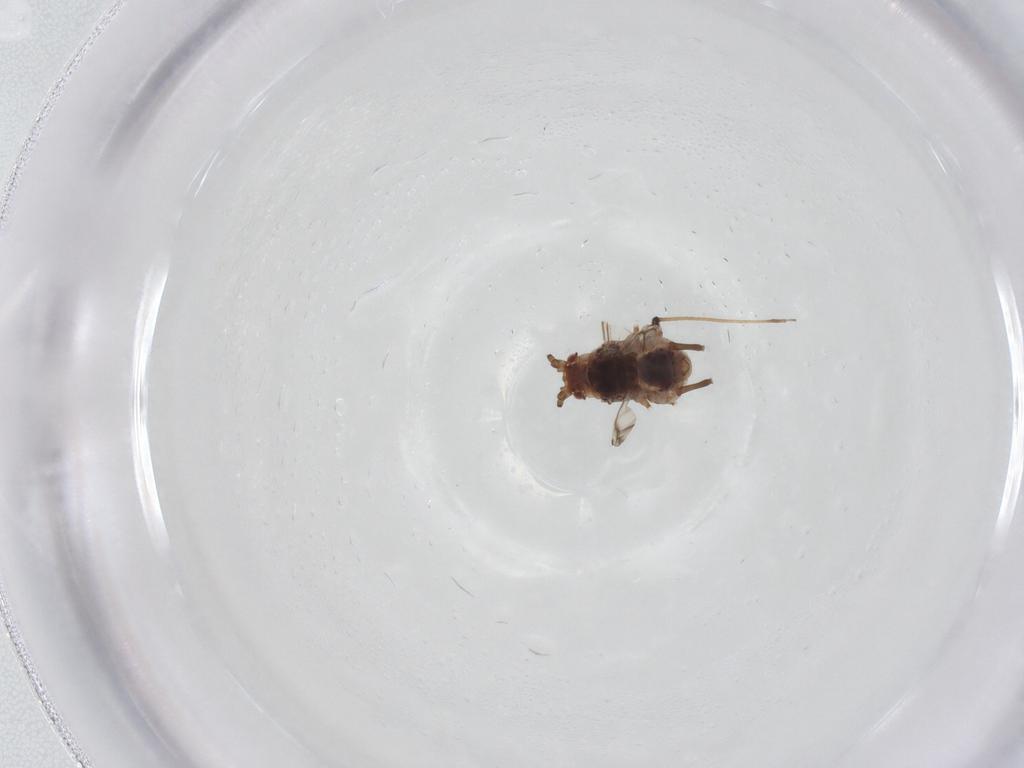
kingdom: Animalia
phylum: Arthropoda
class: Insecta
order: Hemiptera
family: Aphididae
